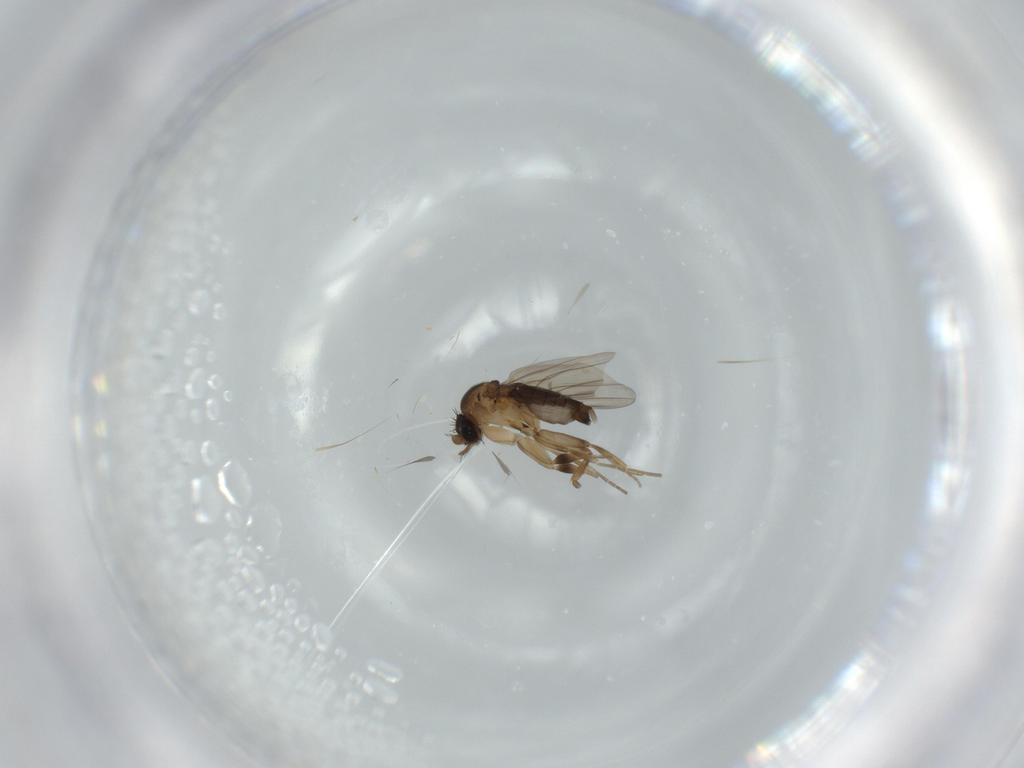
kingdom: Animalia
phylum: Arthropoda
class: Insecta
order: Diptera
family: Phoridae
